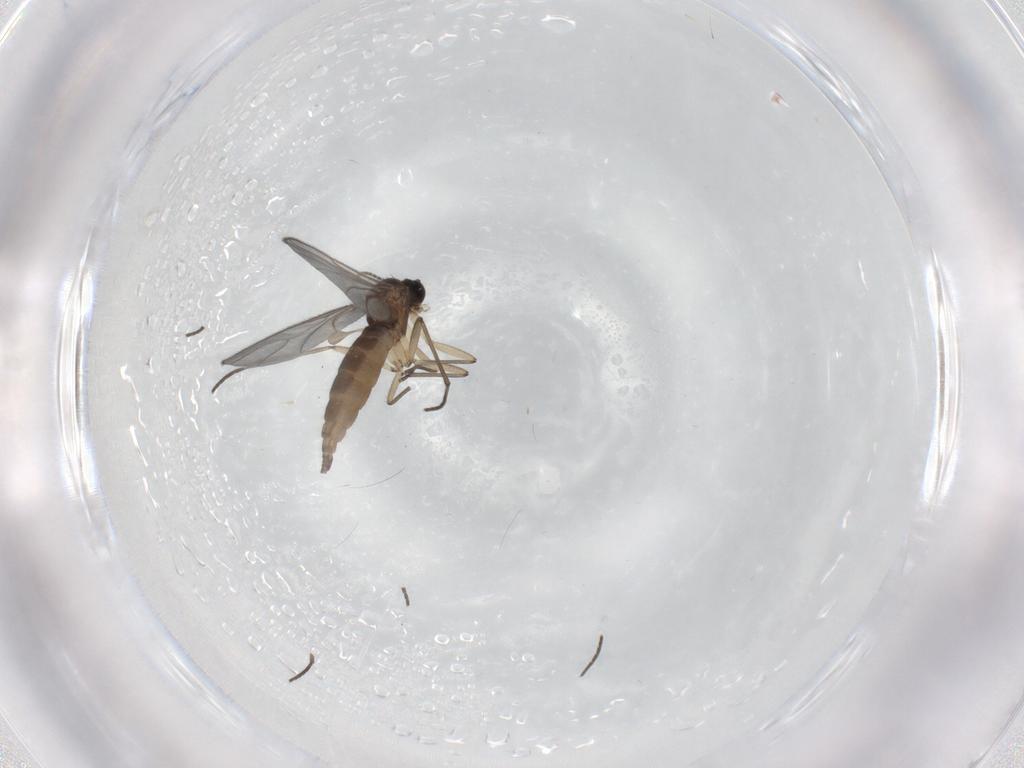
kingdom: Animalia
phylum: Arthropoda
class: Insecta
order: Diptera
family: Sciaridae
